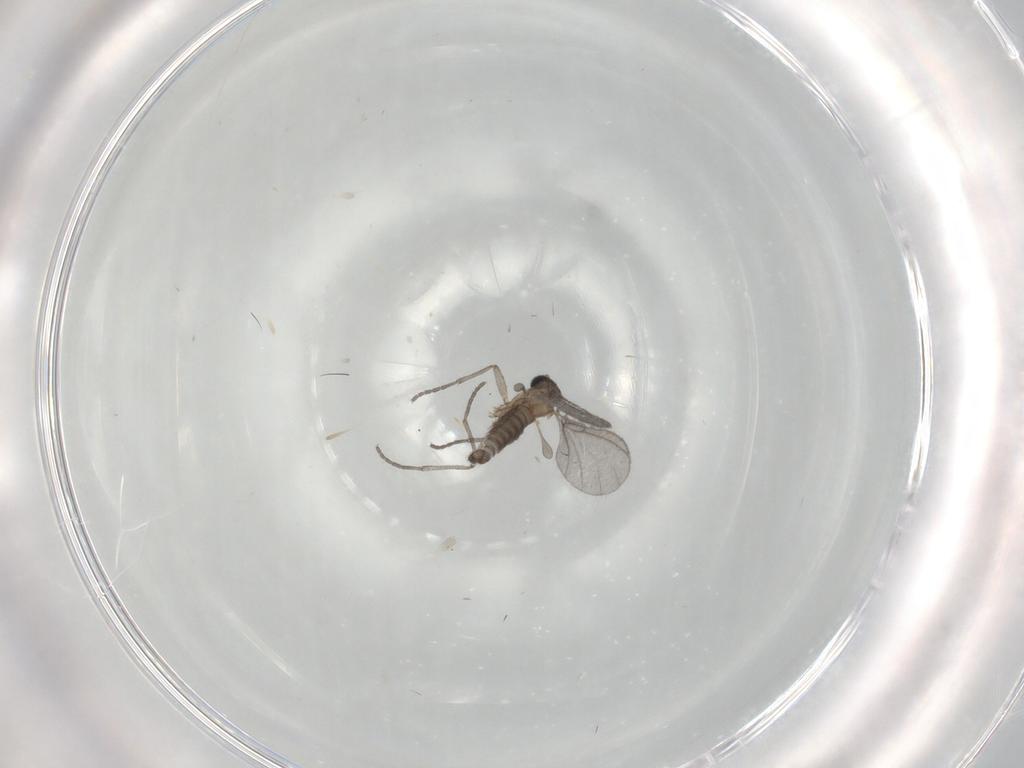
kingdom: Animalia
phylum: Arthropoda
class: Insecta
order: Diptera
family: Sciaridae
